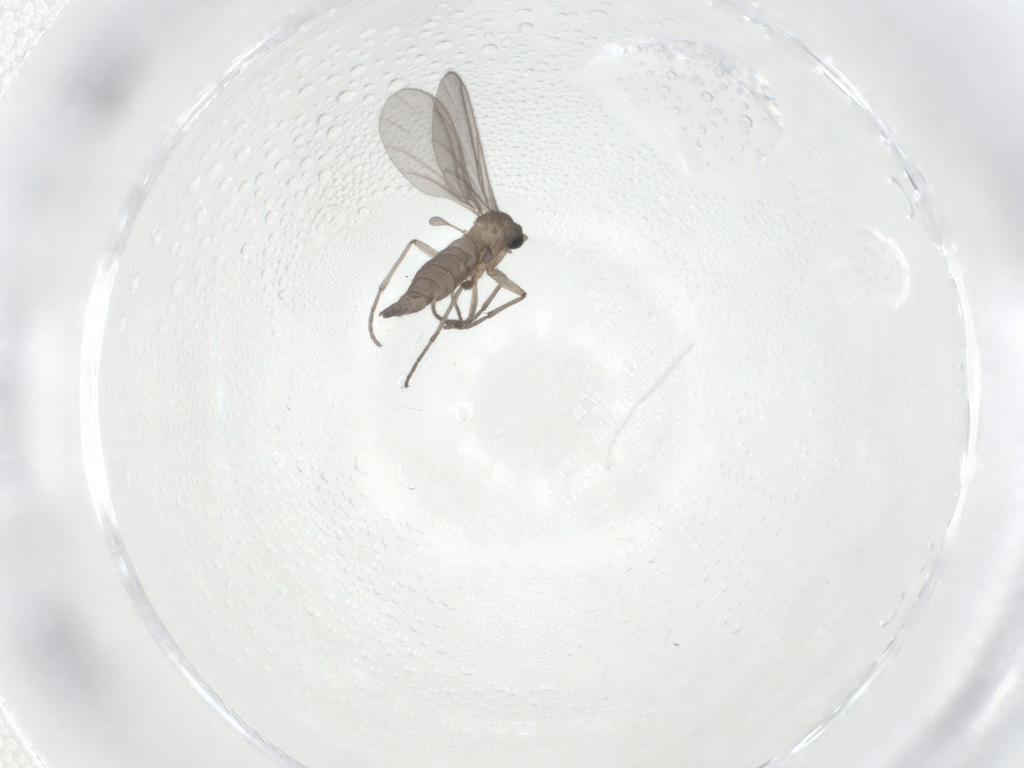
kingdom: Animalia
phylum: Arthropoda
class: Insecta
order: Diptera
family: Sciaridae
